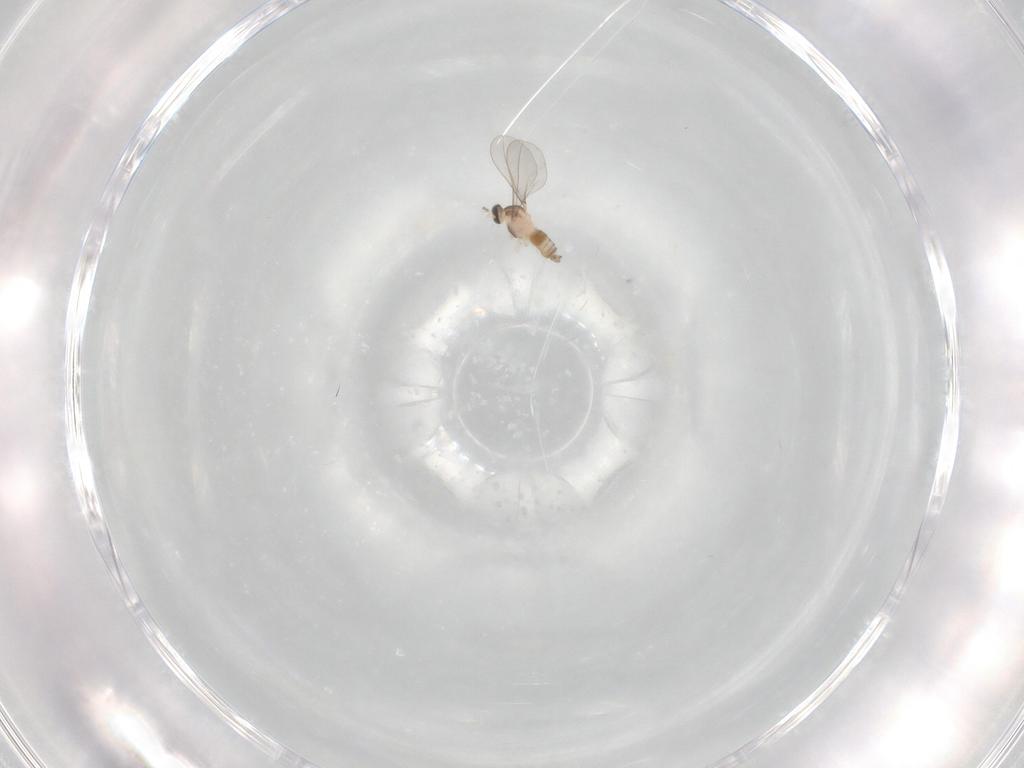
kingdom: Animalia
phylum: Arthropoda
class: Insecta
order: Diptera
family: Cecidomyiidae
